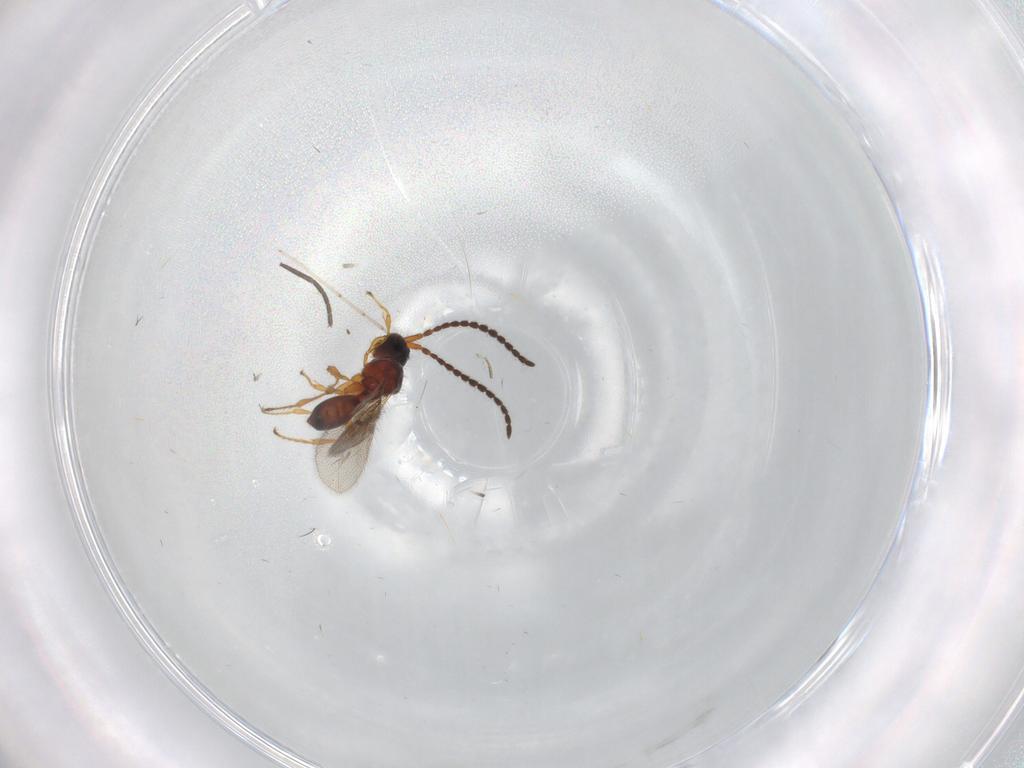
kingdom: Animalia
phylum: Arthropoda
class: Insecta
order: Hymenoptera
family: Diapriidae
